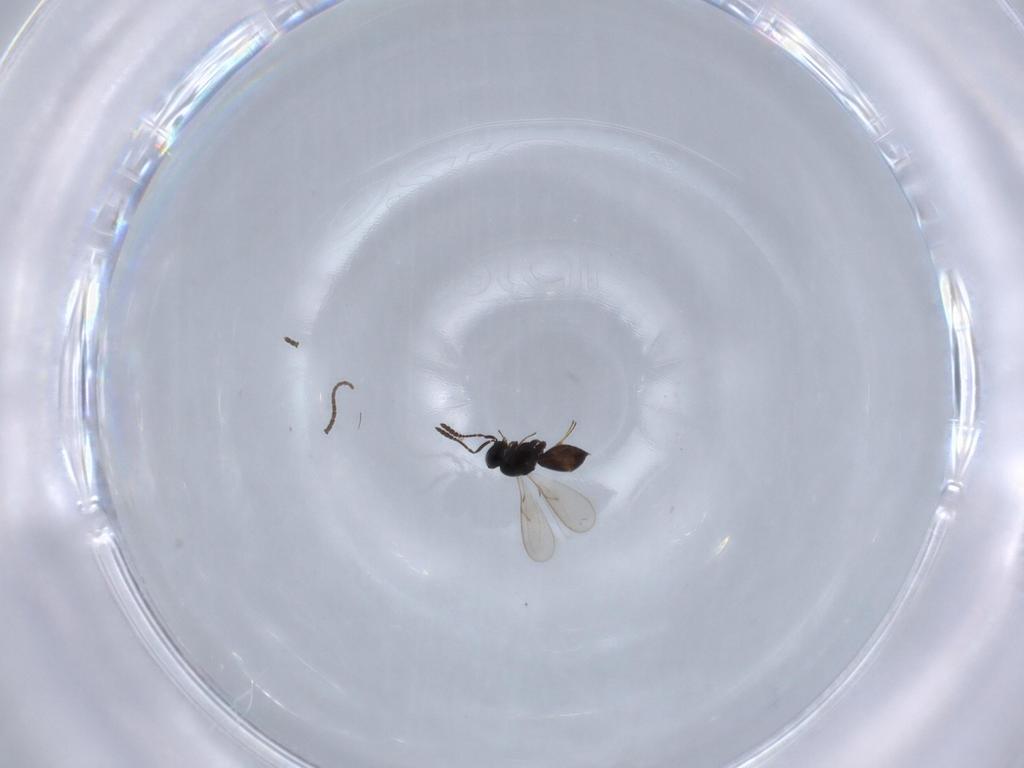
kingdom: Animalia
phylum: Arthropoda
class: Insecta
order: Hymenoptera
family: Scelionidae
